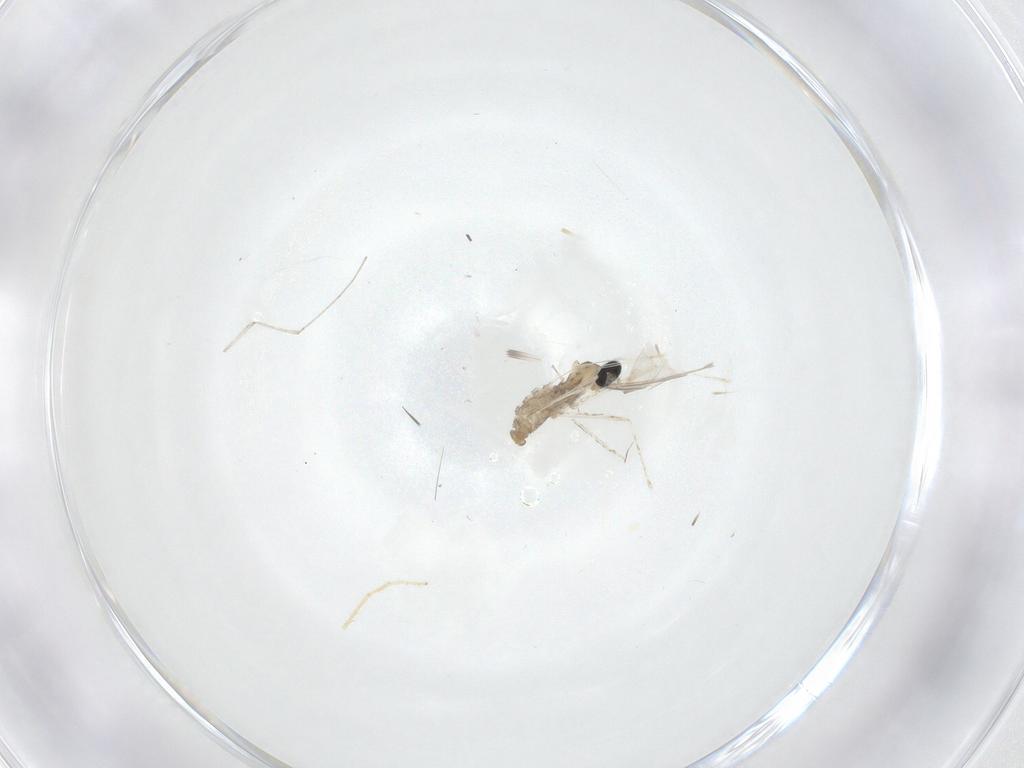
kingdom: Animalia
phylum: Arthropoda
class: Insecta
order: Diptera
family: Cecidomyiidae
